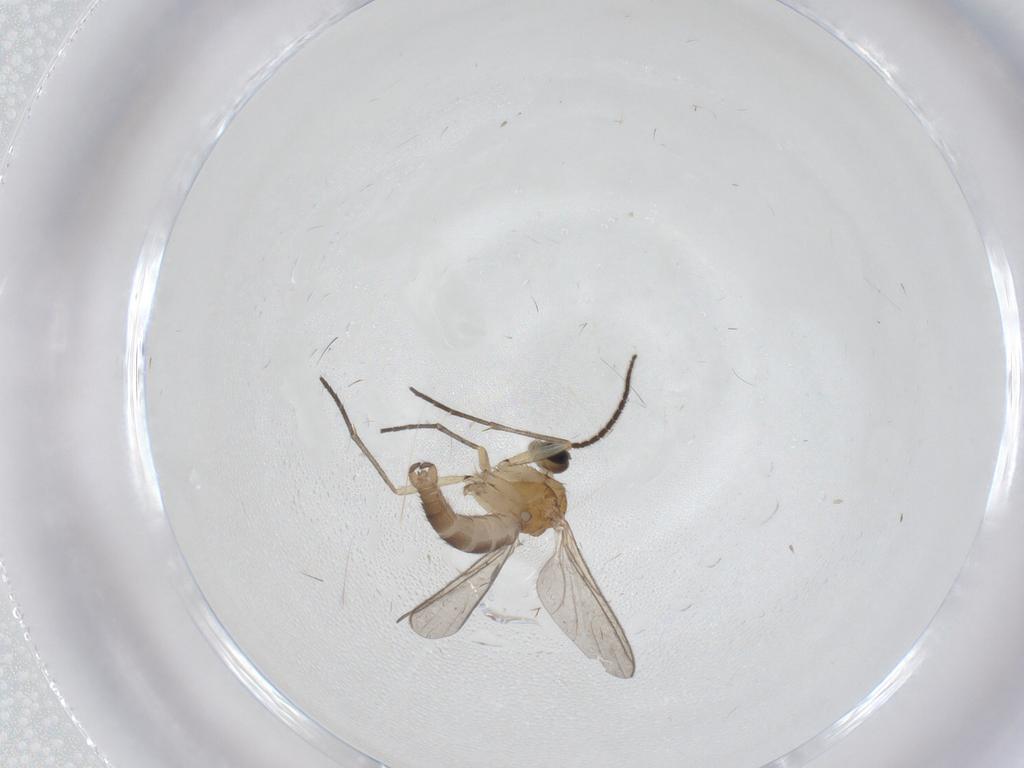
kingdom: Animalia
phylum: Arthropoda
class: Insecta
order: Diptera
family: Sciaridae
